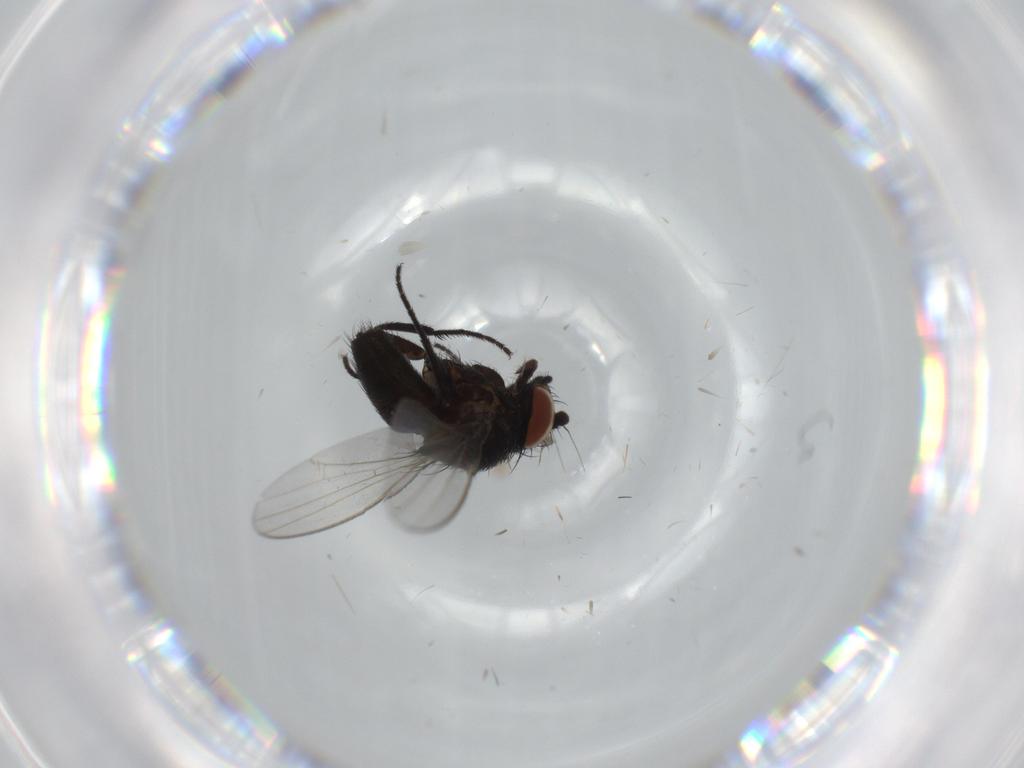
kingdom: Animalia
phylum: Arthropoda
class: Insecta
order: Diptera
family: Milichiidae
